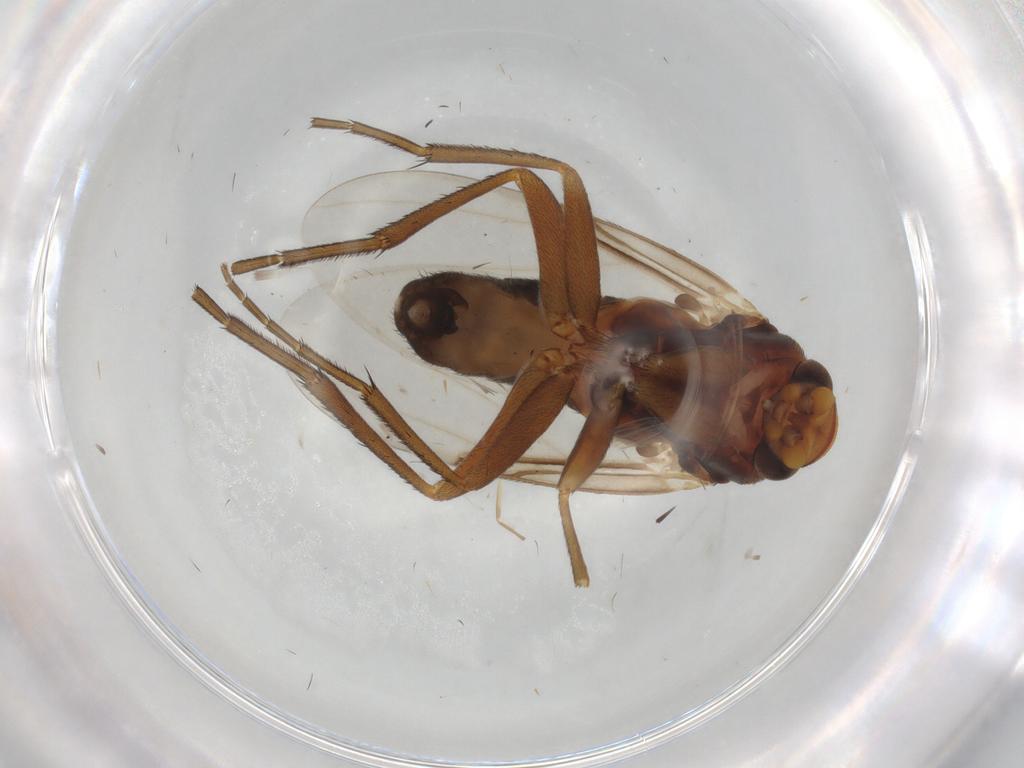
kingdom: Animalia
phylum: Arthropoda
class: Insecta
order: Diptera
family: Phoridae
